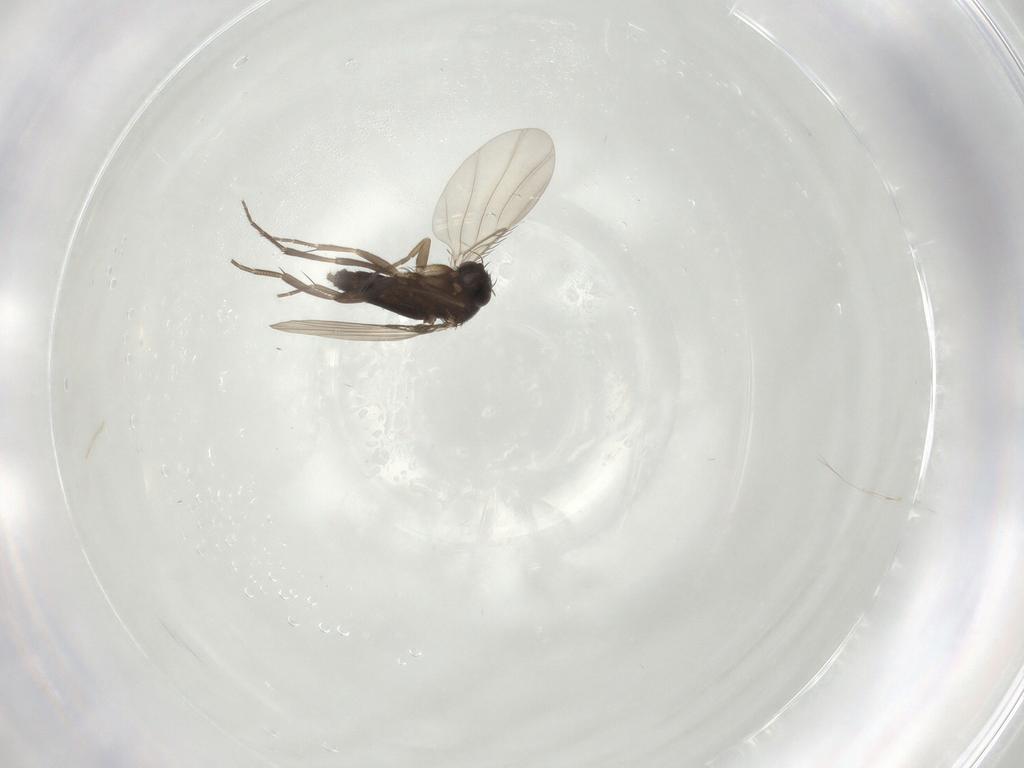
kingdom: Animalia
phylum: Arthropoda
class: Insecta
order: Diptera
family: Phoridae
